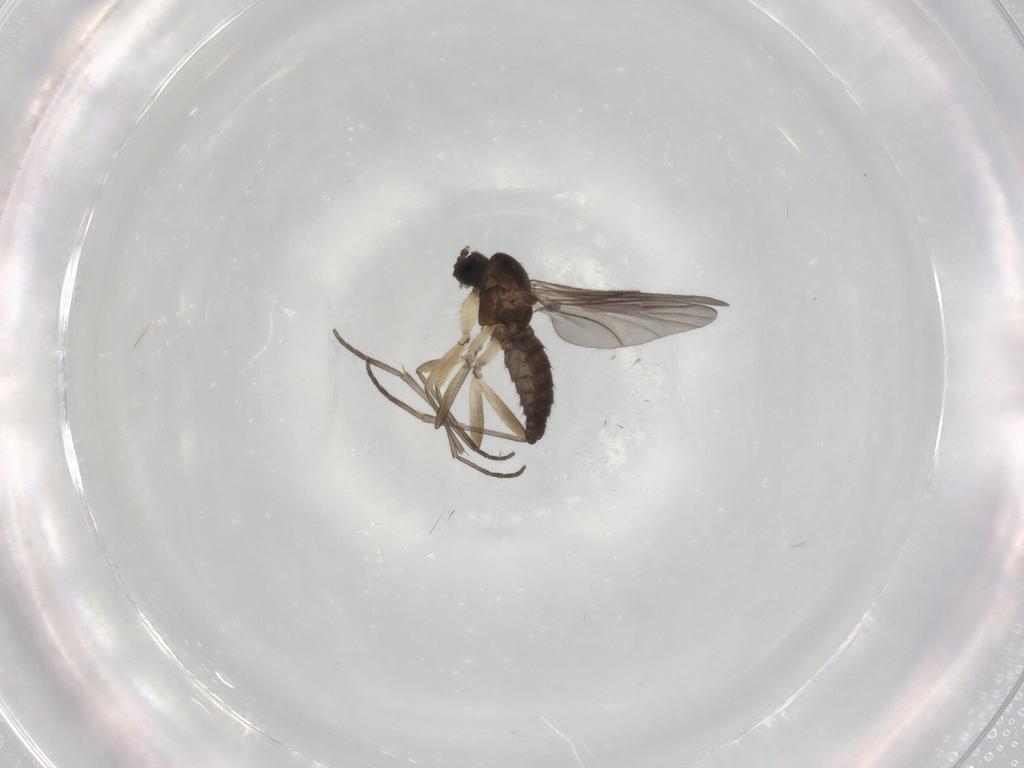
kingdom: Animalia
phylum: Arthropoda
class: Insecta
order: Diptera
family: Sciaridae
